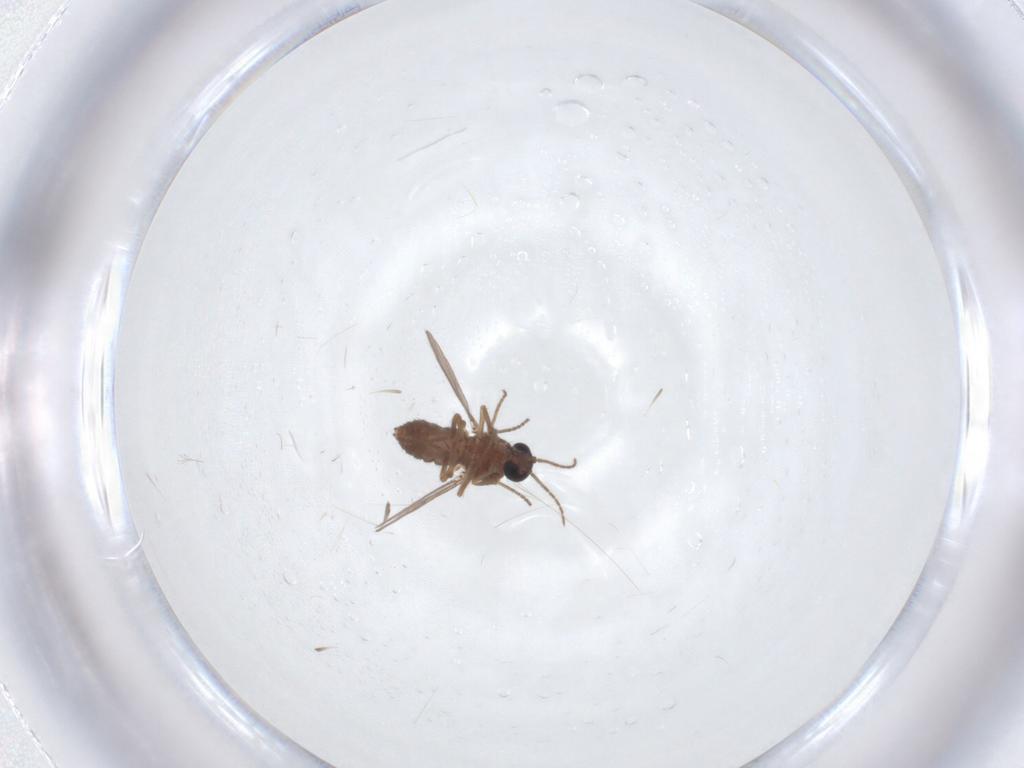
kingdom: Animalia
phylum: Arthropoda
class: Insecta
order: Diptera
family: Ceratopogonidae
